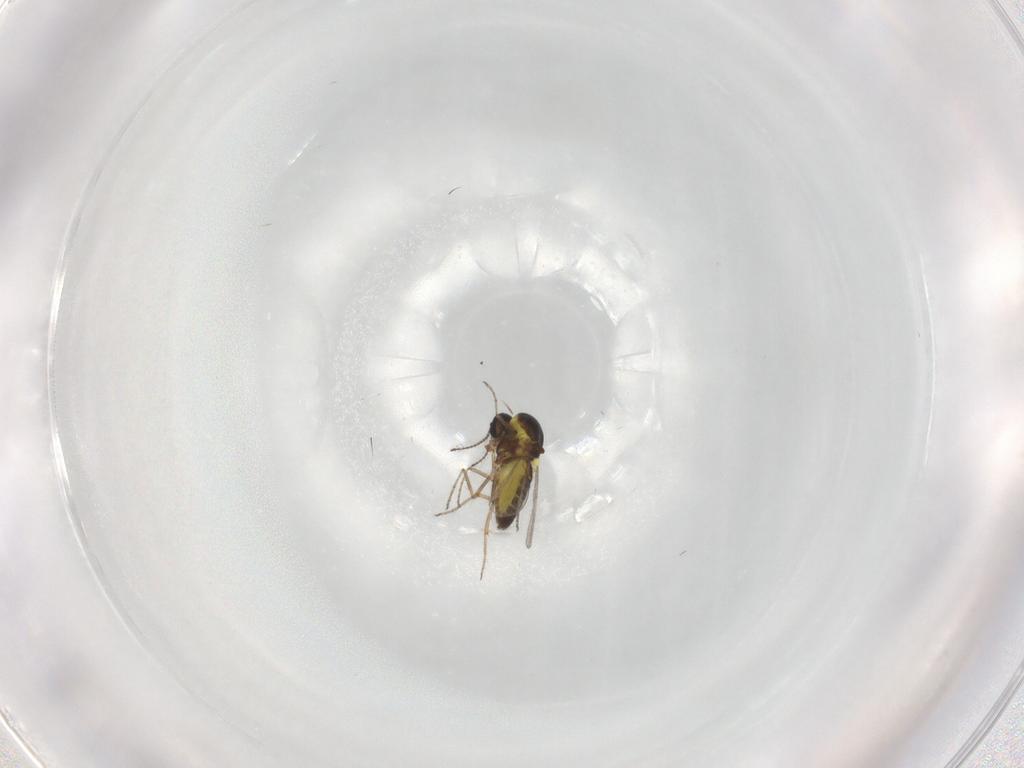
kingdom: Animalia
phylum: Arthropoda
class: Insecta
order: Diptera
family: Ceratopogonidae
